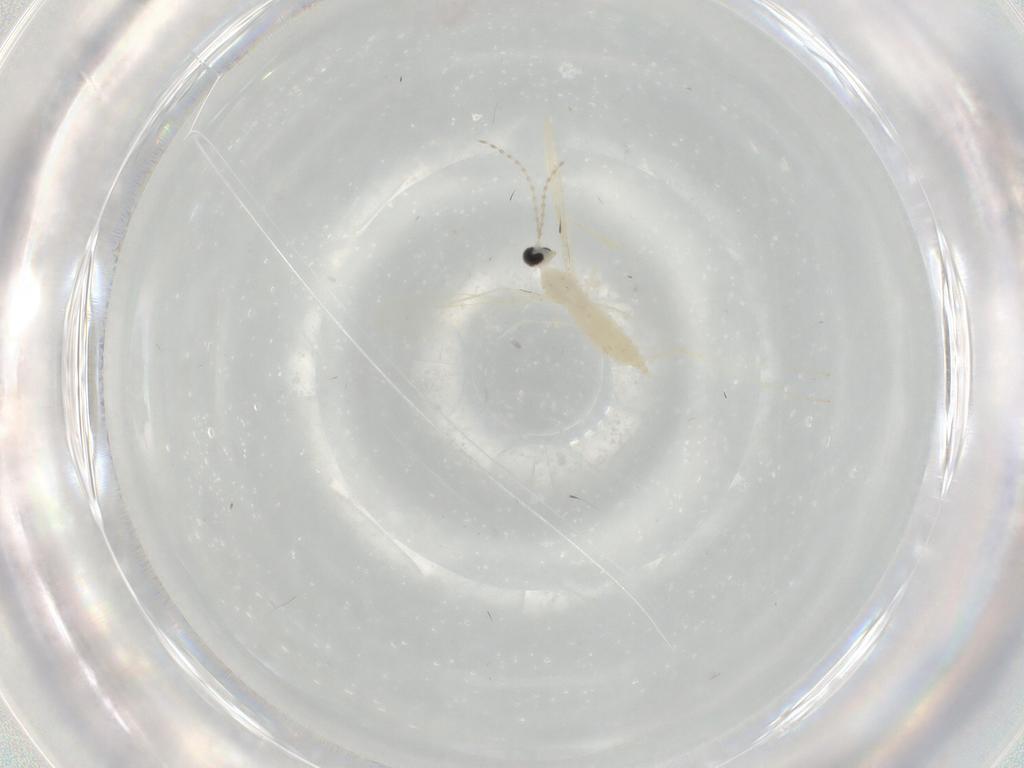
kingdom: Animalia
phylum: Arthropoda
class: Insecta
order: Diptera
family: Cecidomyiidae
